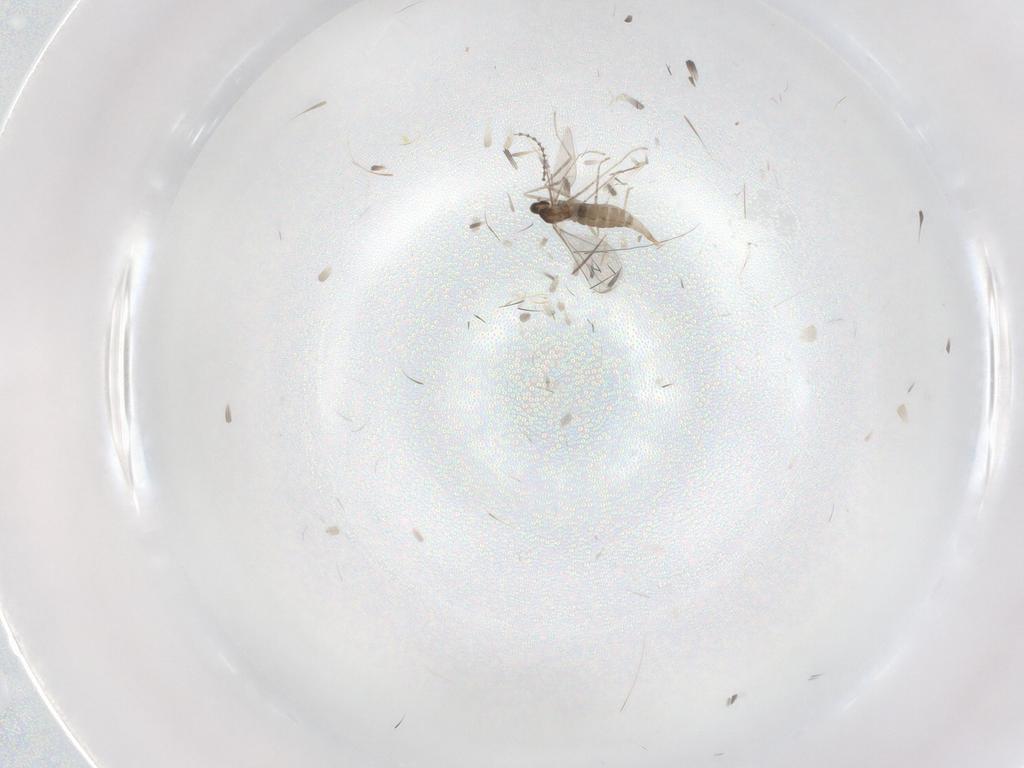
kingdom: Animalia
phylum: Arthropoda
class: Insecta
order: Diptera
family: Cecidomyiidae
